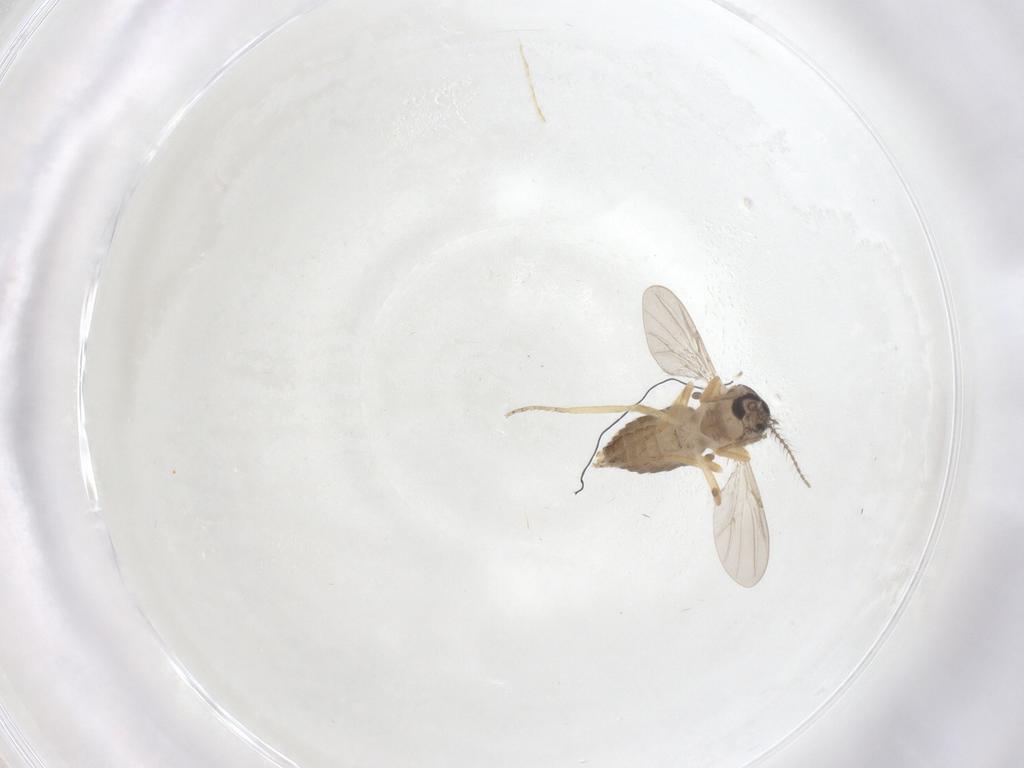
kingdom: Animalia
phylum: Arthropoda
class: Insecta
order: Diptera
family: Ceratopogonidae
